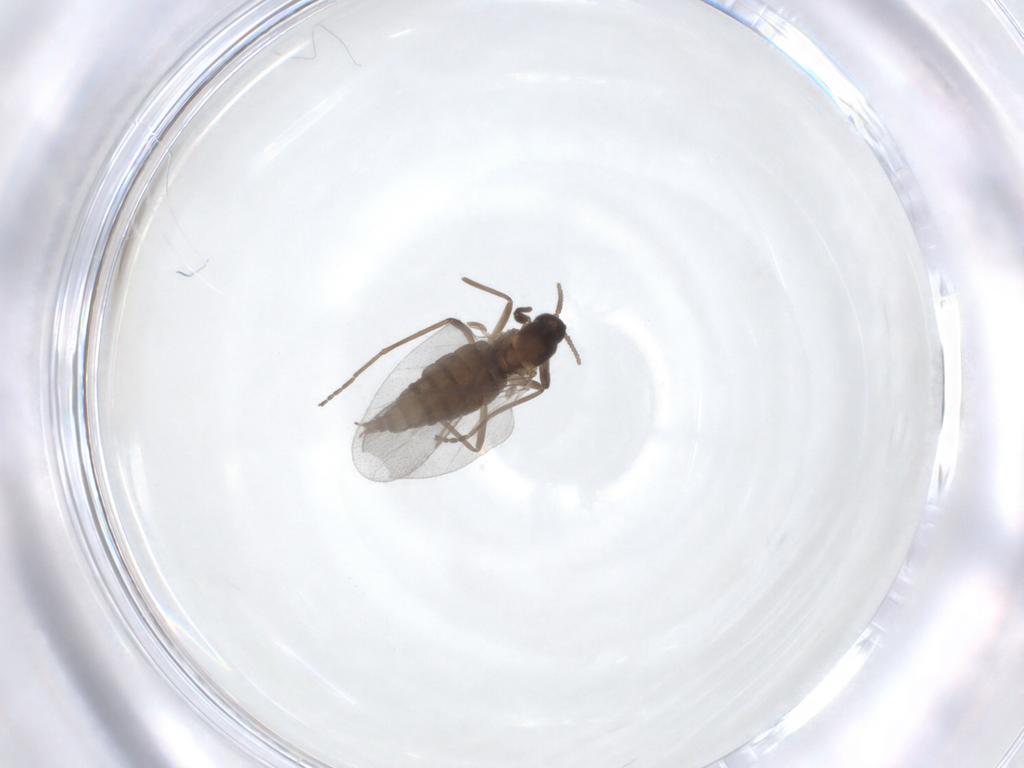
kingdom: Animalia
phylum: Arthropoda
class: Insecta
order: Diptera
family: Cecidomyiidae
